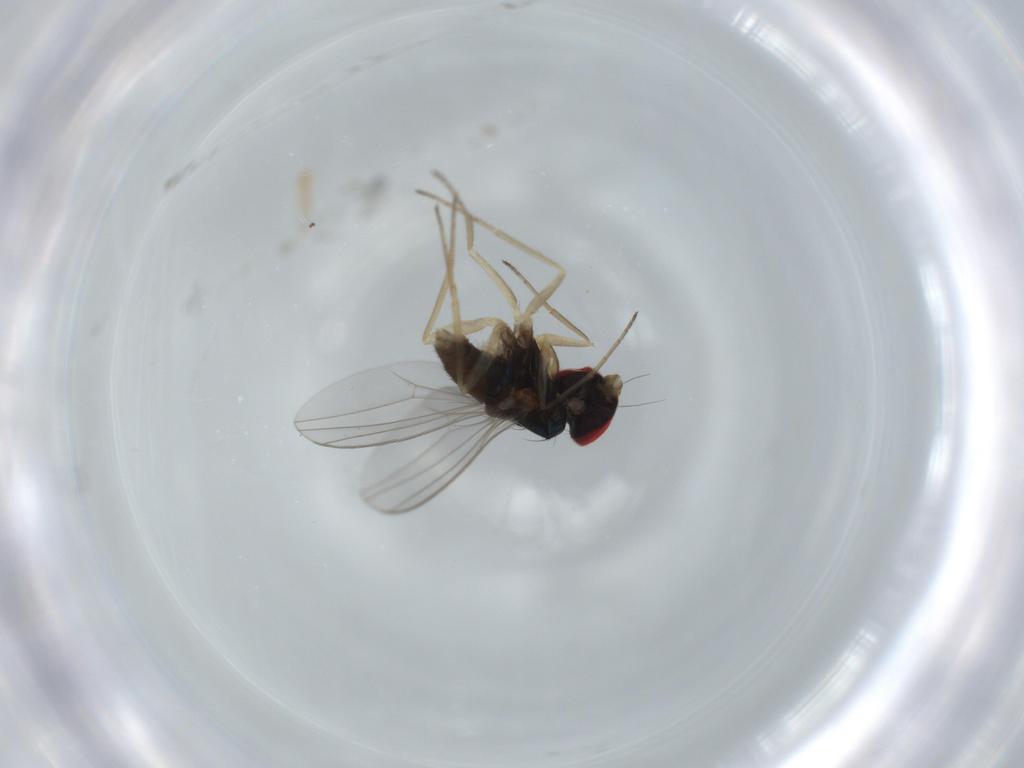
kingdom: Animalia
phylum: Arthropoda
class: Insecta
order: Diptera
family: Dolichopodidae
